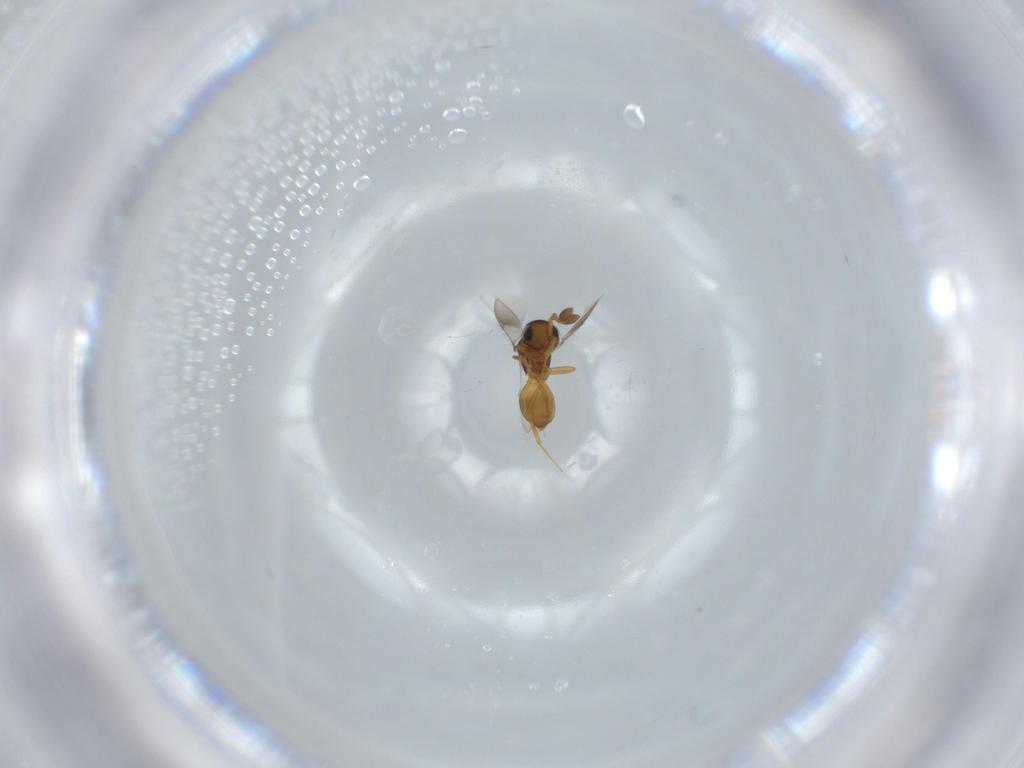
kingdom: Animalia
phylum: Arthropoda
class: Insecta
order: Hymenoptera
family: Scelionidae
